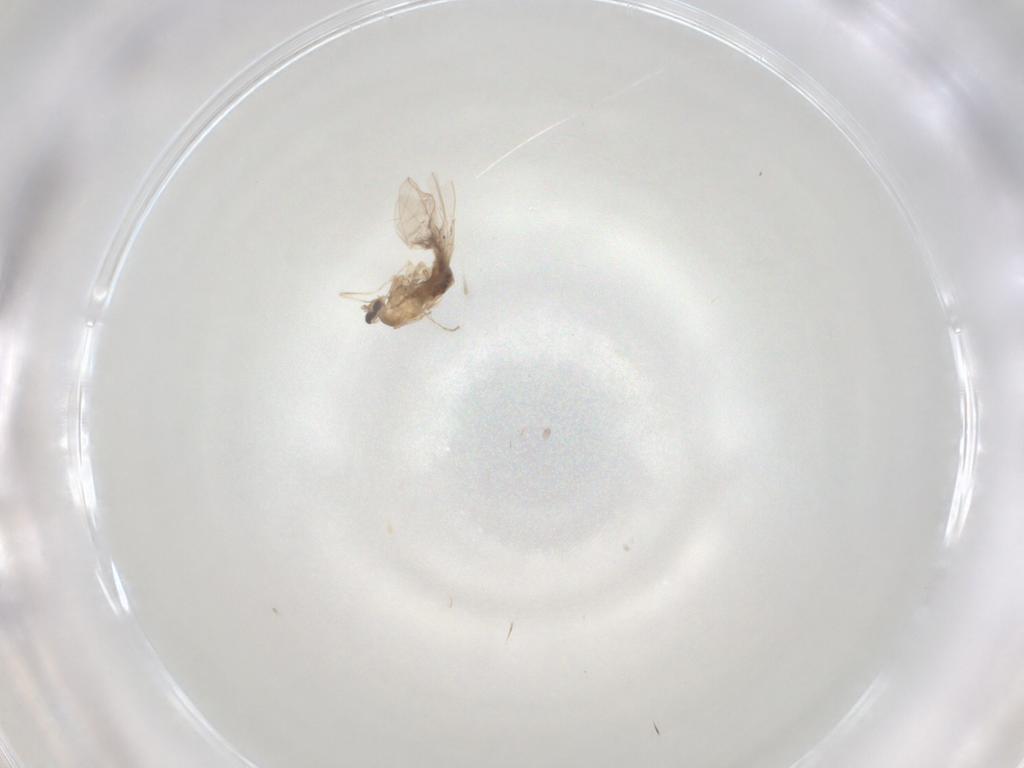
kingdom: Animalia
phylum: Arthropoda
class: Insecta
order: Diptera
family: Cecidomyiidae
